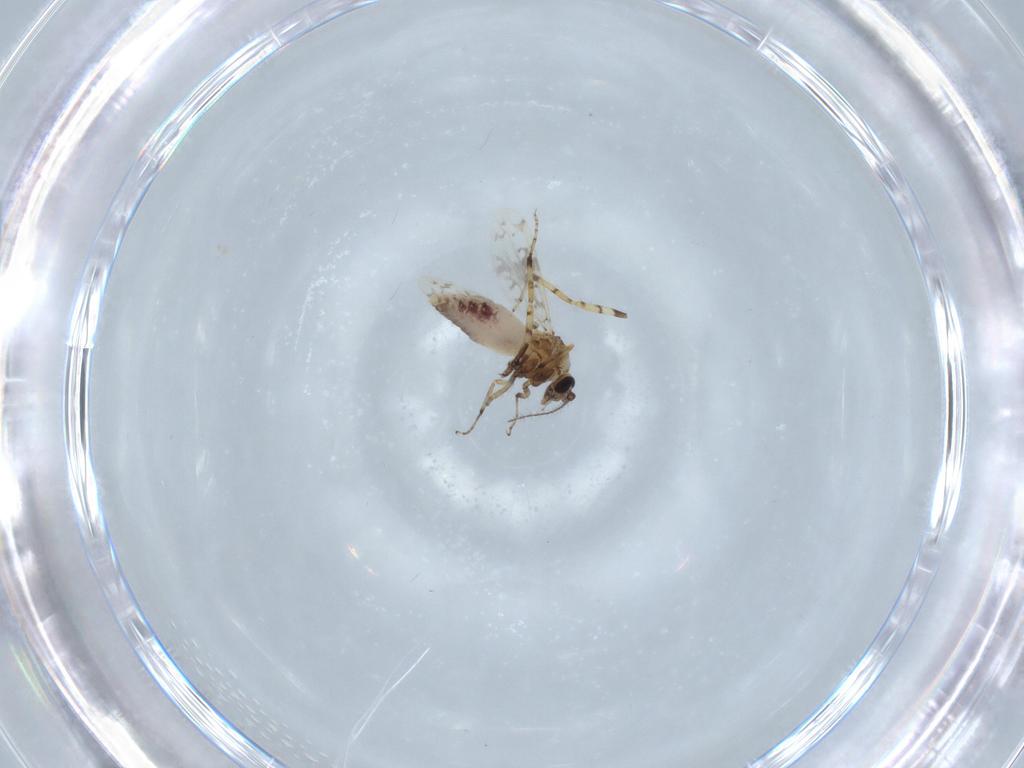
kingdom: Animalia
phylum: Arthropoda
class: Insecta
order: Diptera
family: Ceratopogonidae
